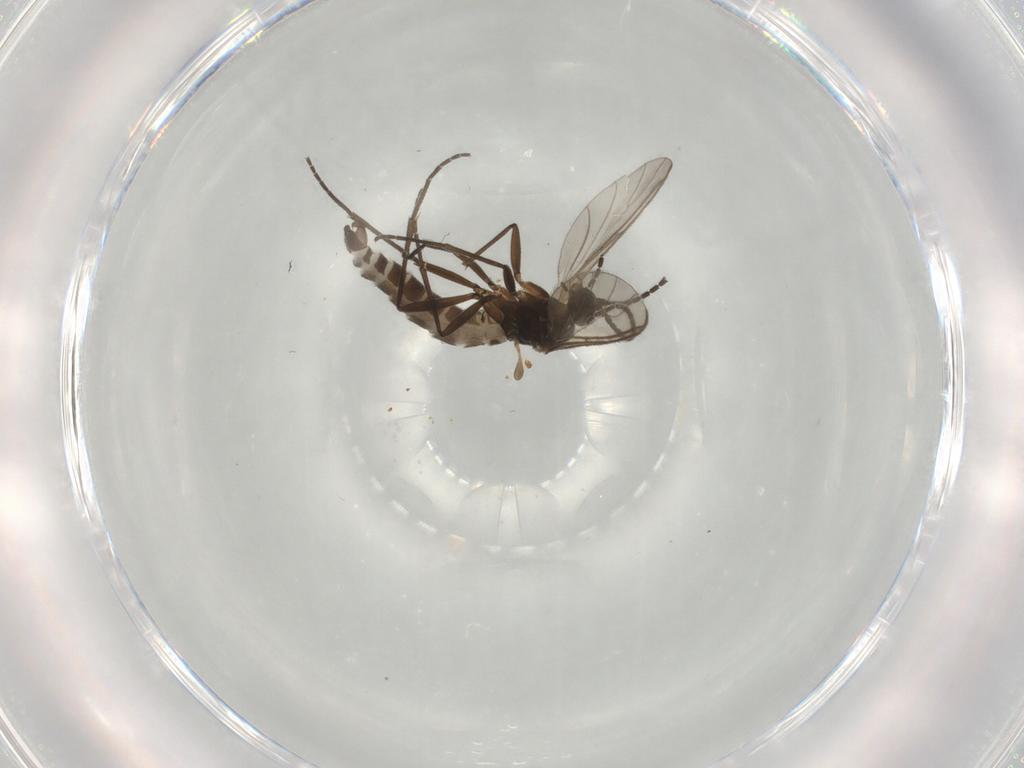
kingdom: Animalia
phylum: Arthropoda
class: Insecta
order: Diptera
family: Sciaridae
